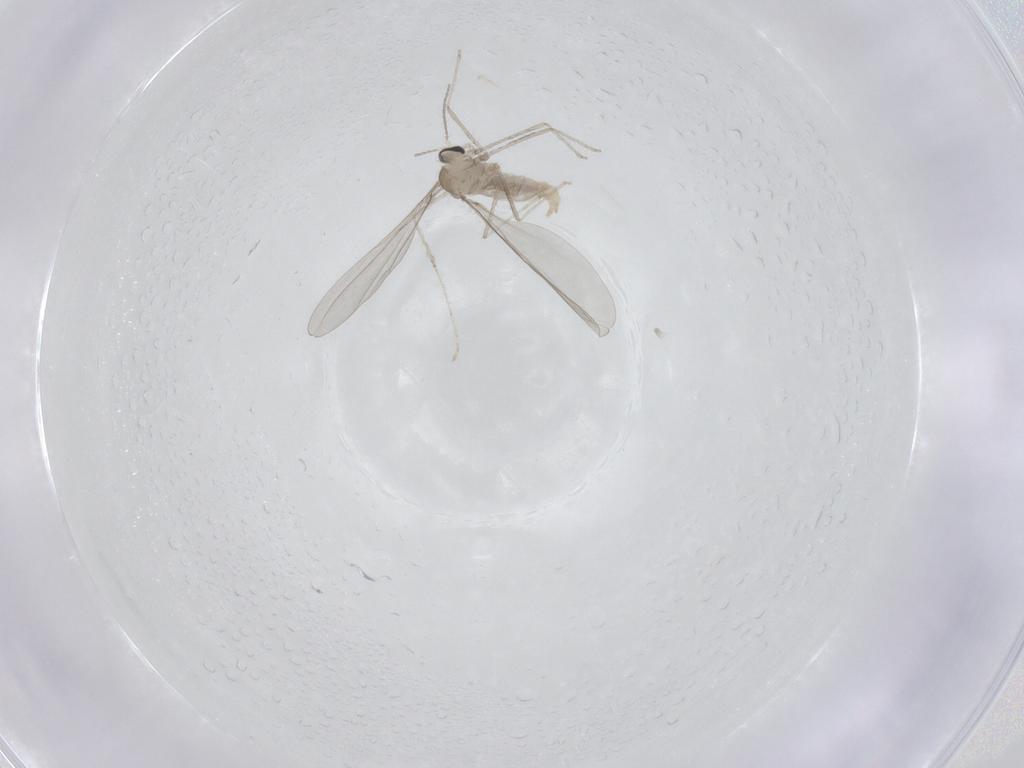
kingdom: Animalia
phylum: Arthropoda
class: Insecta
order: Diptera
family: Cecidomyiidae
